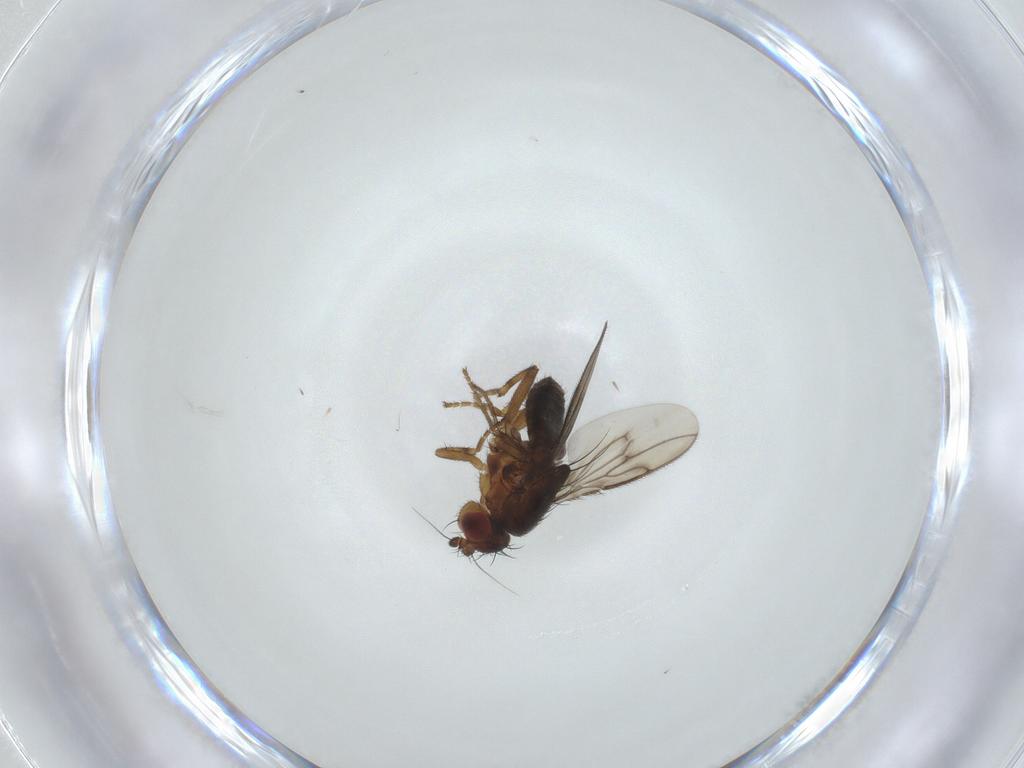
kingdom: Animalia
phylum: Arthropoda
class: Insecta
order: Diptera
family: Sphaeroceridae
